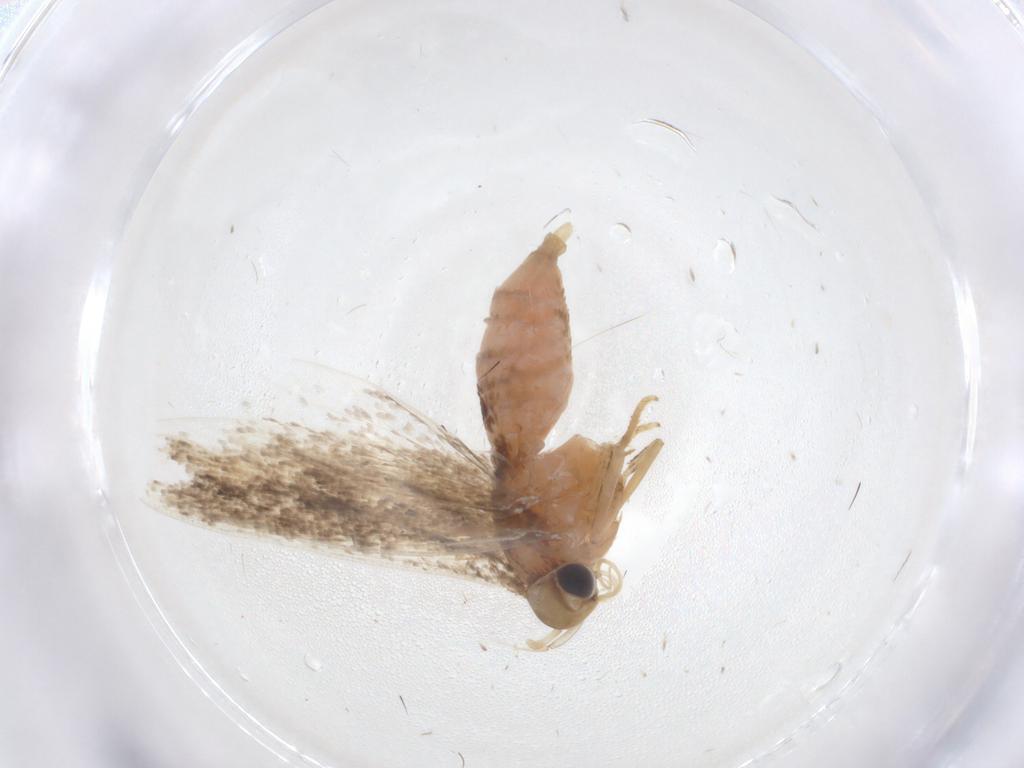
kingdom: Animalia
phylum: Arthropoda
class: Insecta
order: Lepidoptera
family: Gelechiidae
